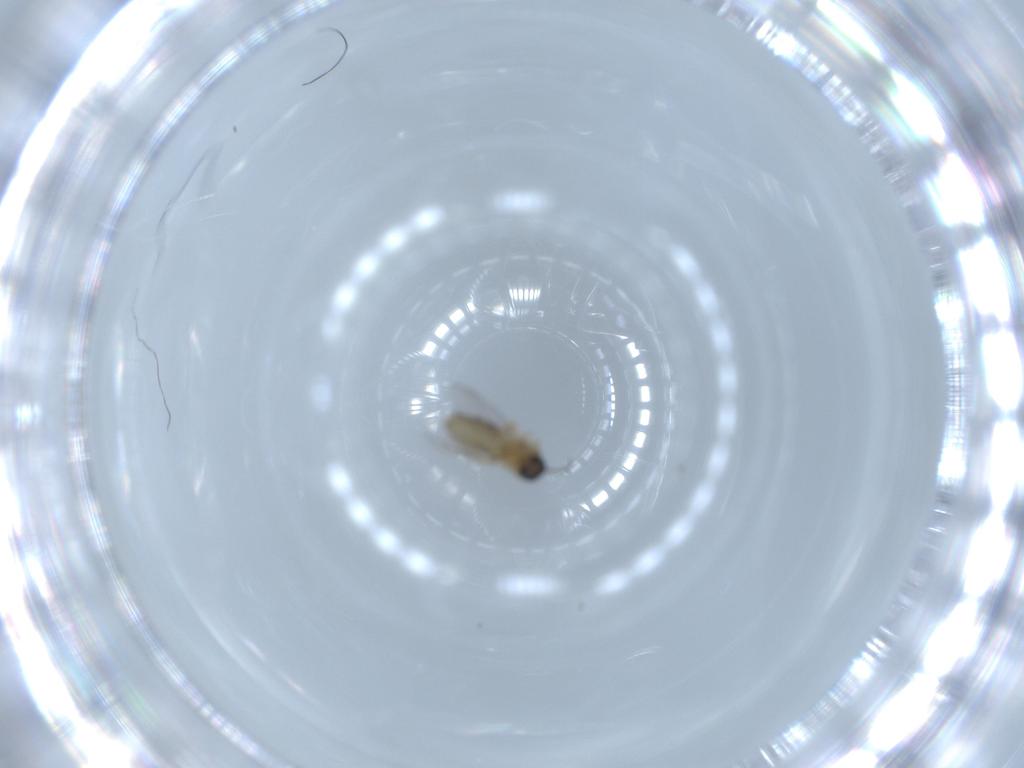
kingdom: Animalia
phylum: Arthropoda
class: Insecta
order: Diptera
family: Ceratopogonidae
